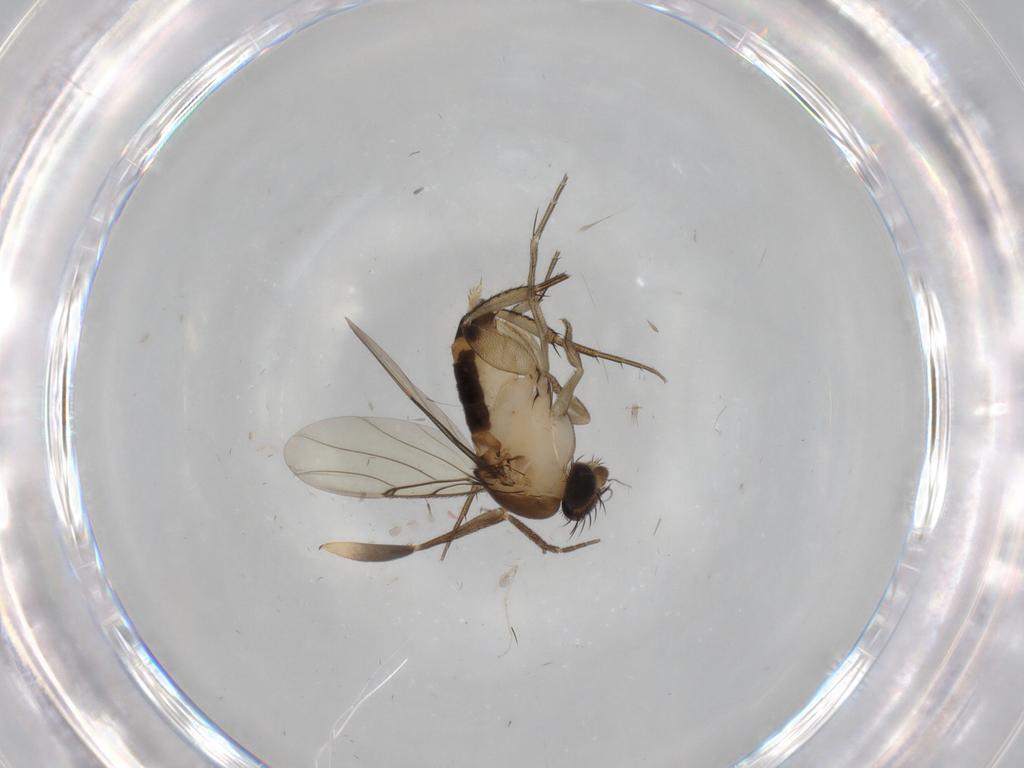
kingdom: Animalia
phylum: Arthropoda
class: Insecta
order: Diptera
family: Phoridae
